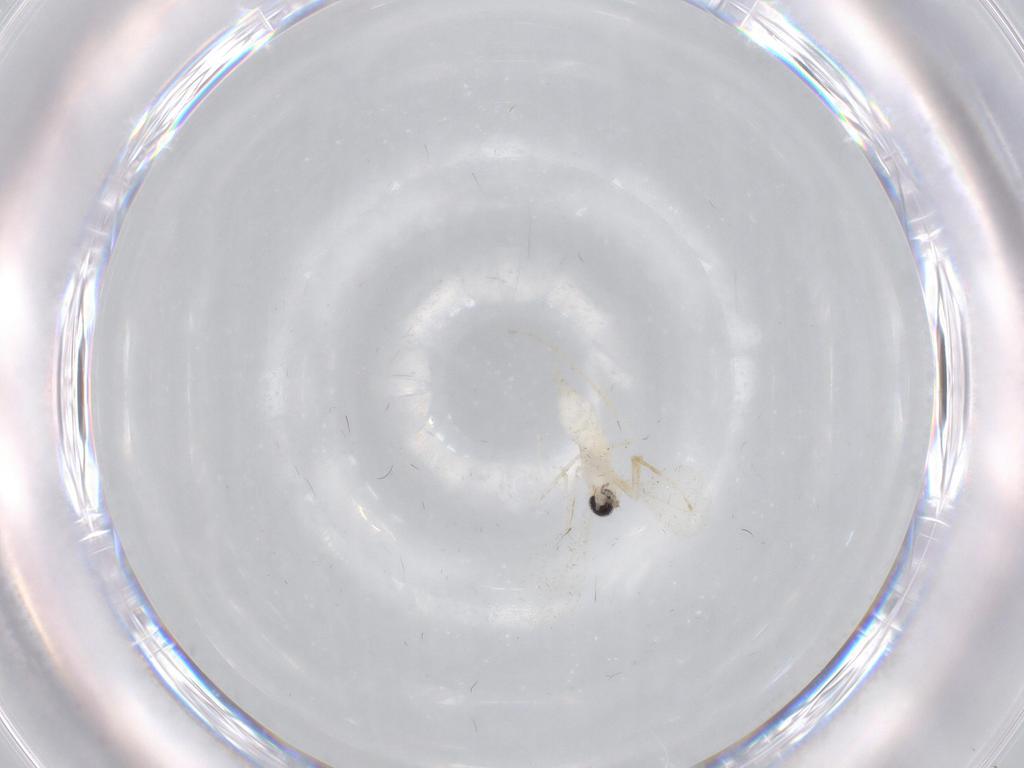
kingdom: Animalia
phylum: Arthropoda
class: Insecta
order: Diptera
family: Cecidomyiidae
